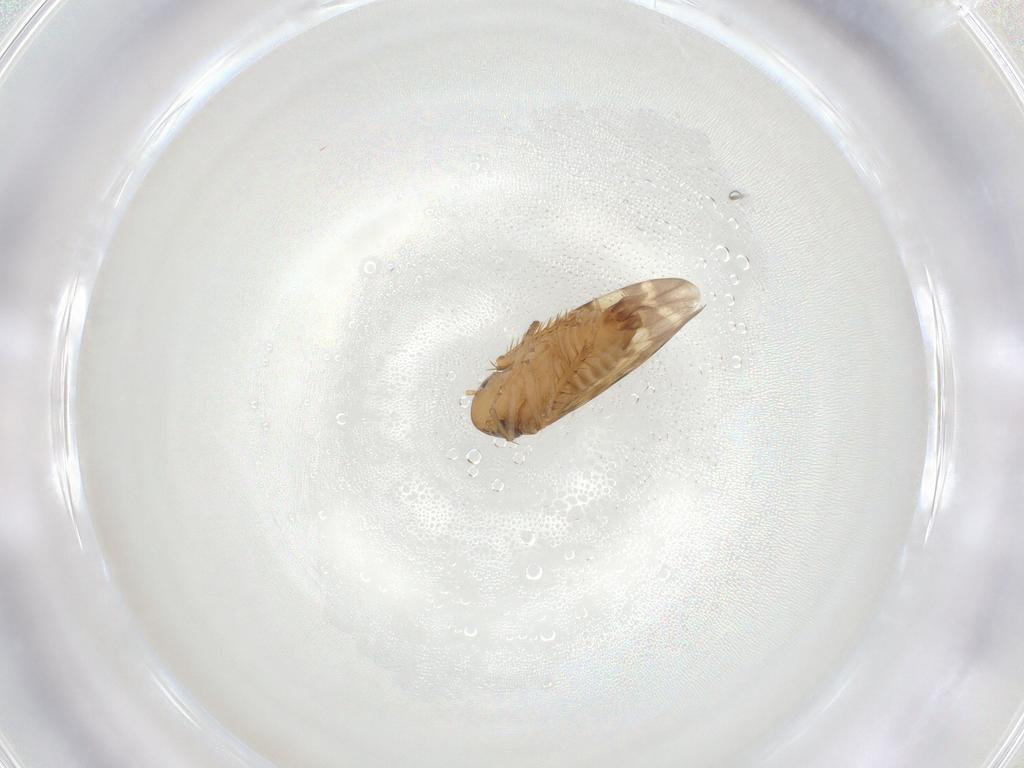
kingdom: Animalia
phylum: Arthropoda
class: Insecta
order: Hemiptera
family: Cicadellidae
